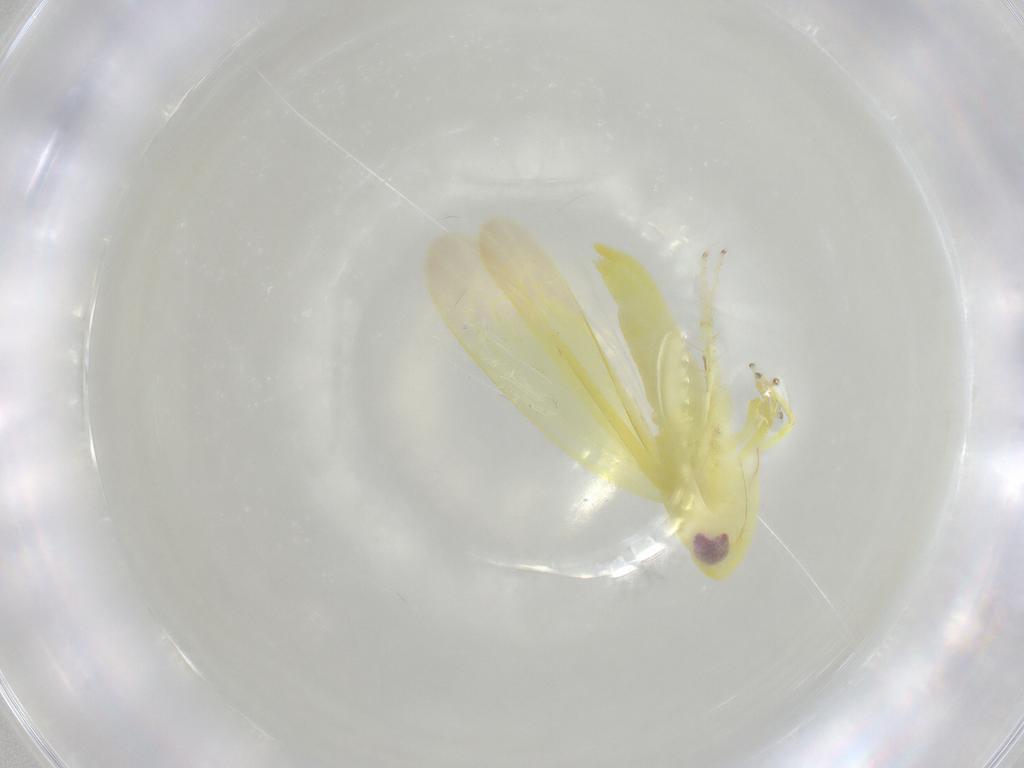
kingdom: Animalia
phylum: Arthropoda
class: Insecta
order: Hemiptera
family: Cicadellidae
